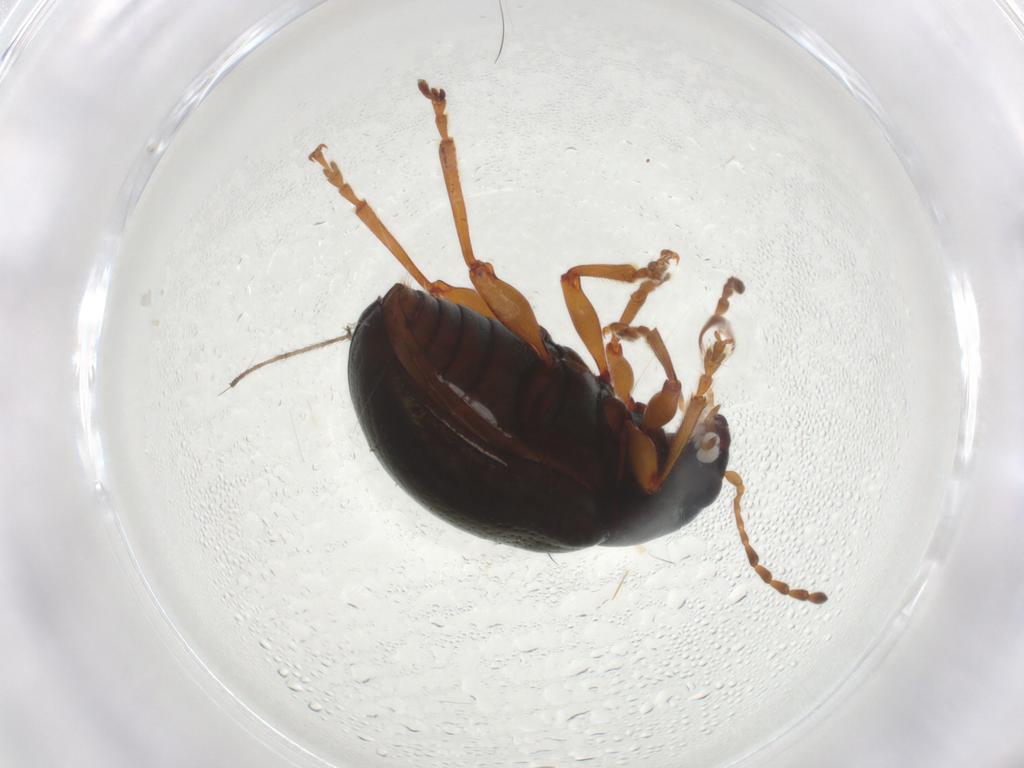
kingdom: Animalia
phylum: Arthropoda
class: Insecta
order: Coleoptera
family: Chrysomelidae
